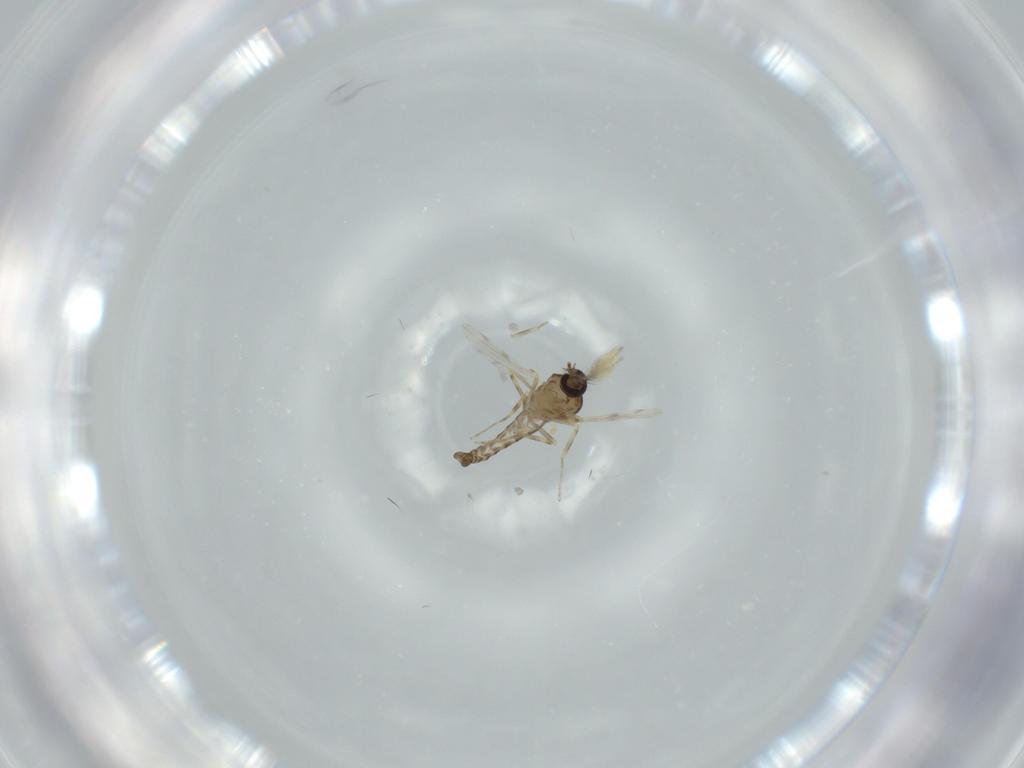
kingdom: Animalia
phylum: Arthropoda
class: Insecta
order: Diptera
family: Ceratopogonidae
